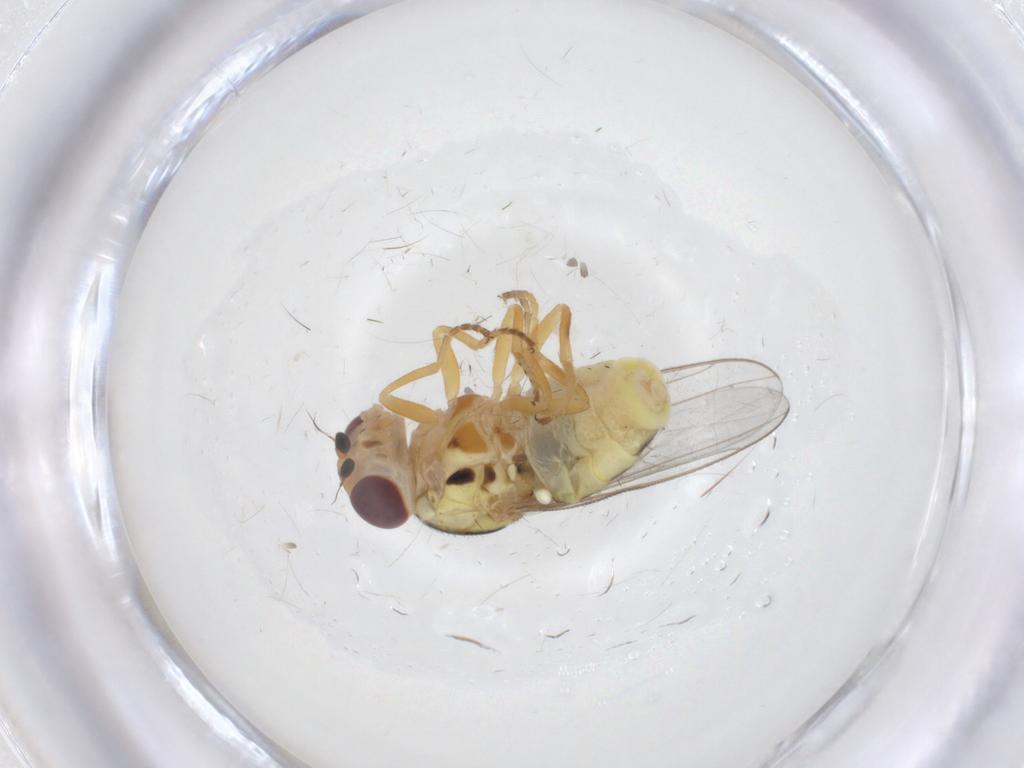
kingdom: Animalia
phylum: Arthropoda
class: Insecta
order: Diptera
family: Chloropidae
